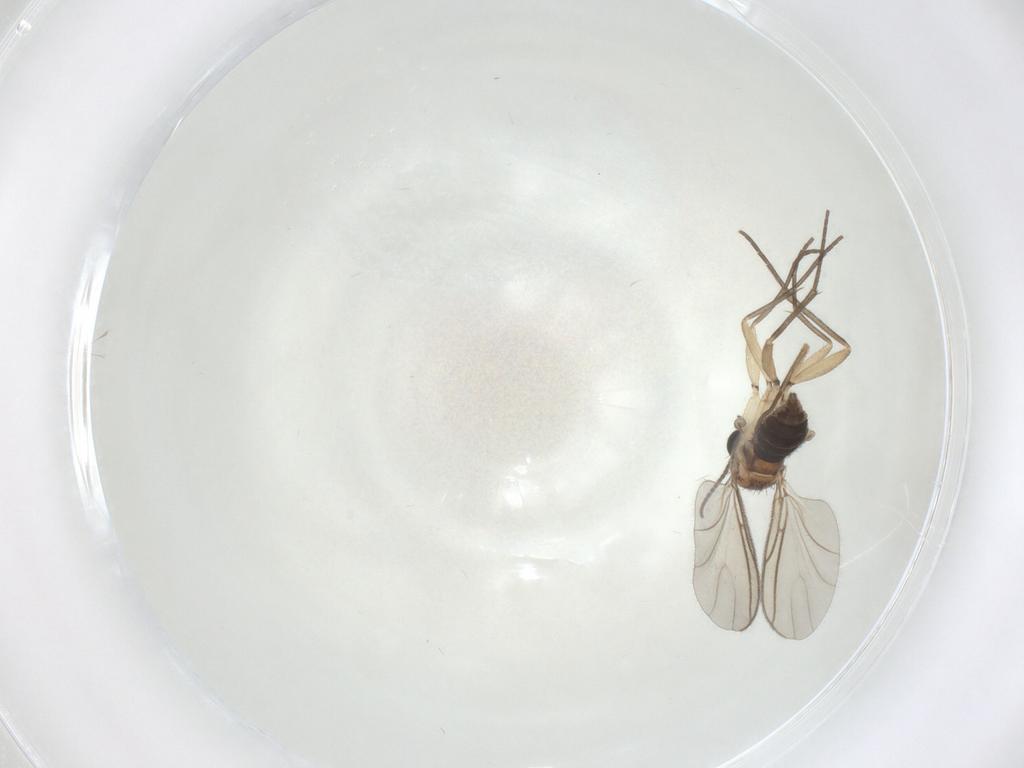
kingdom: Animalia
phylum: Arthropoda
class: Insecta
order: Diptera
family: Sciaridae
